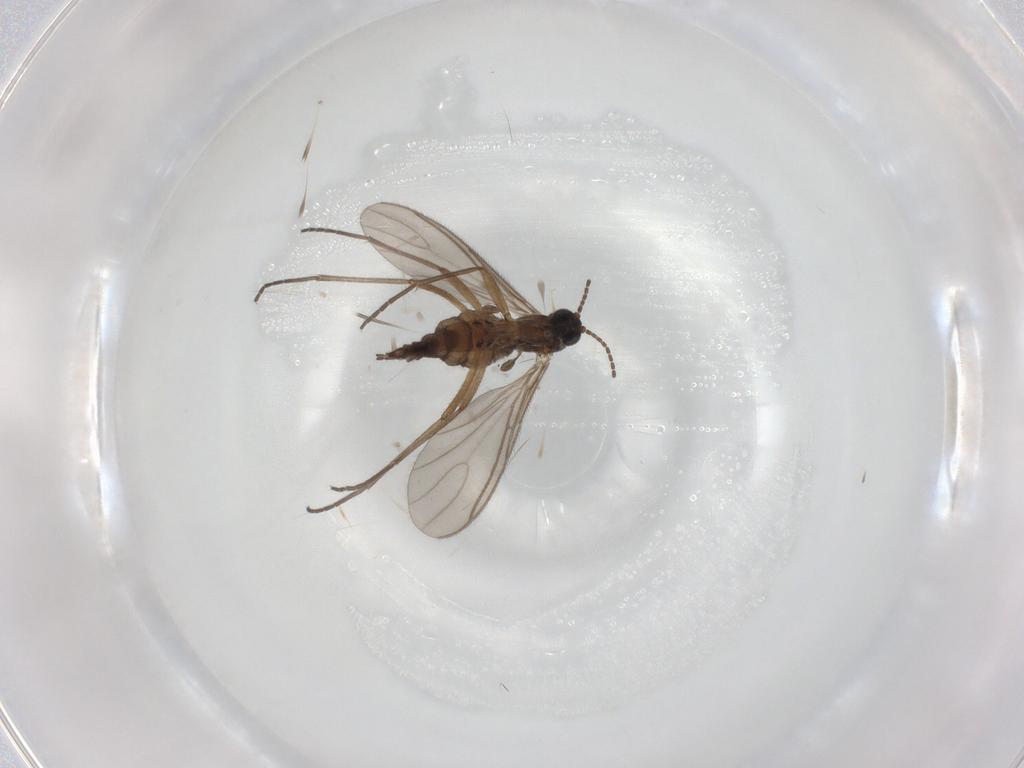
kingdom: Animalia
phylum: Arthropoda
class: Insecta
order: Diptera
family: Sciaridae
